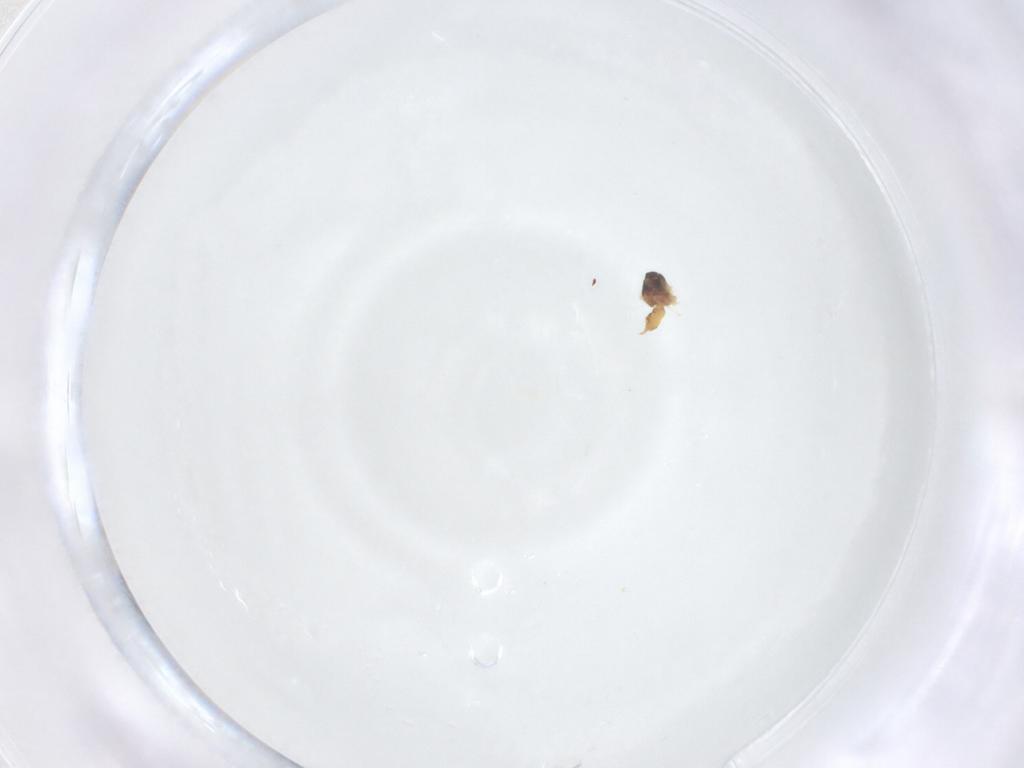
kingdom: Animalia
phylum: Arthropoda
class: Insecta
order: Hemiptera
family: Aleyrodidae
